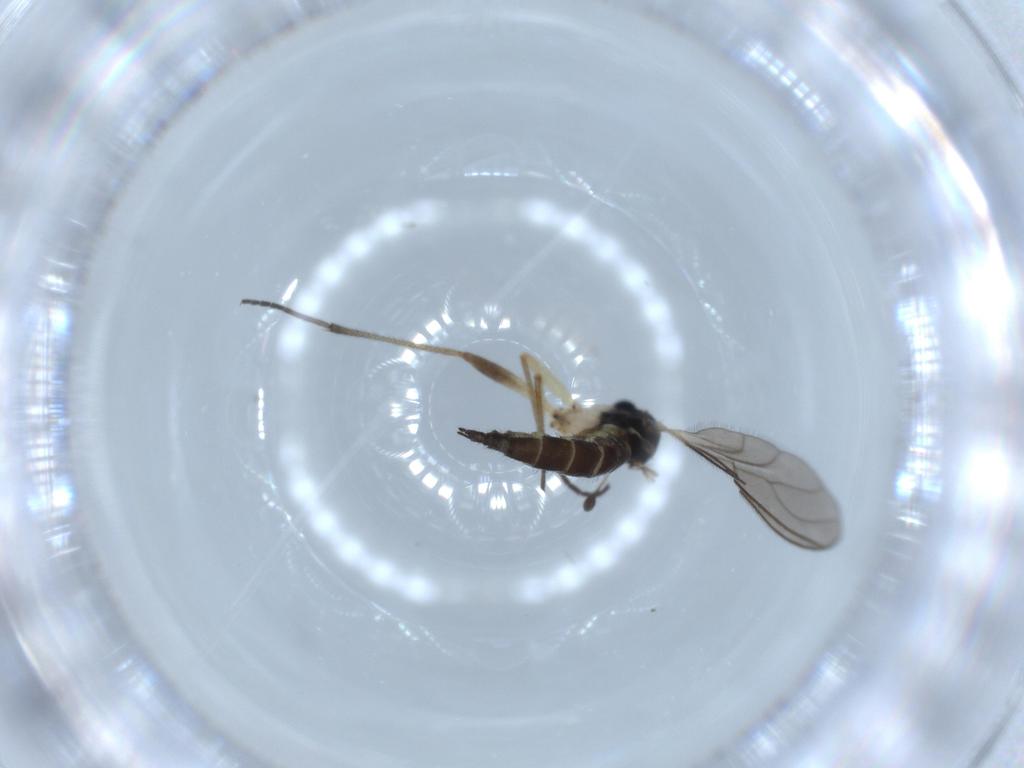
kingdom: Animalia
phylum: Arthropoda
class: Insecta
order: Diptera
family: Sciaridae
